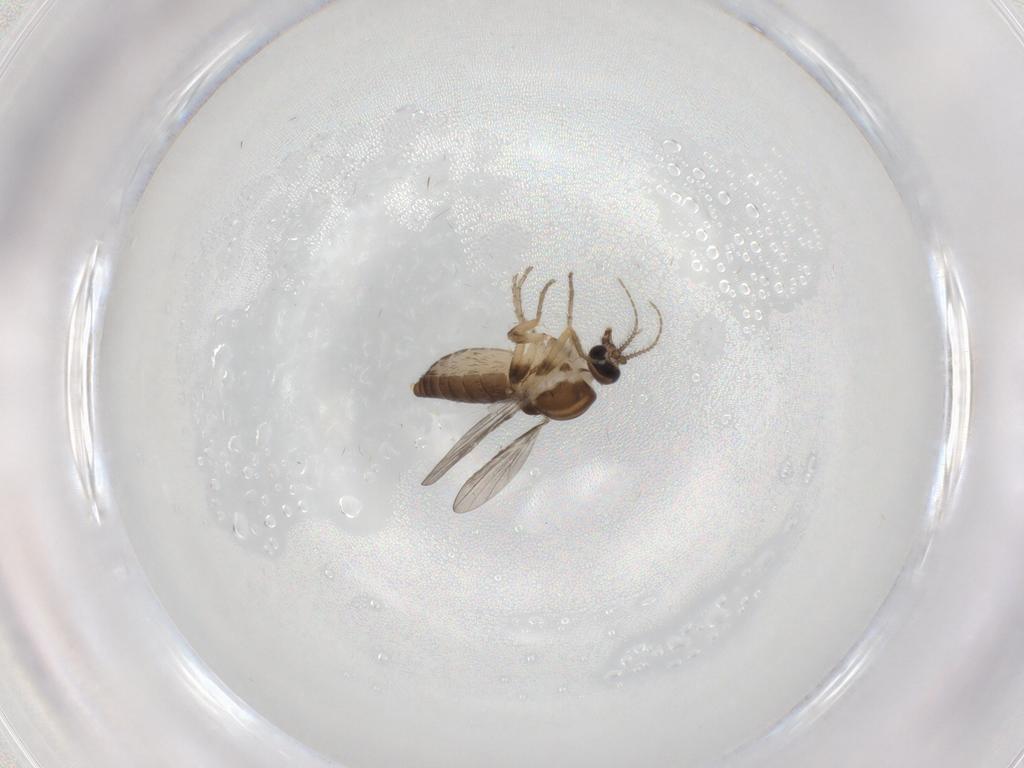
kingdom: Animalia
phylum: Arthropoda
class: Insecta
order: Diptera
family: Ceratopogonidae
